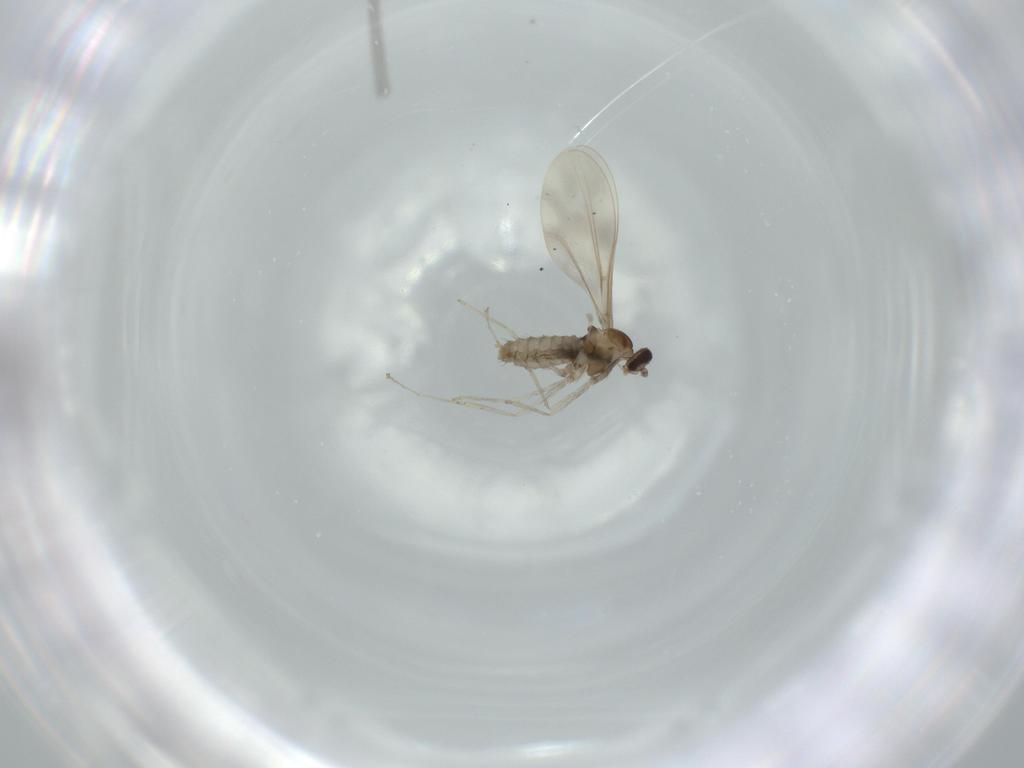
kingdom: Animalia
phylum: Arthropoda
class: Insecta
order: Diptera
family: Cecidomyiidae
